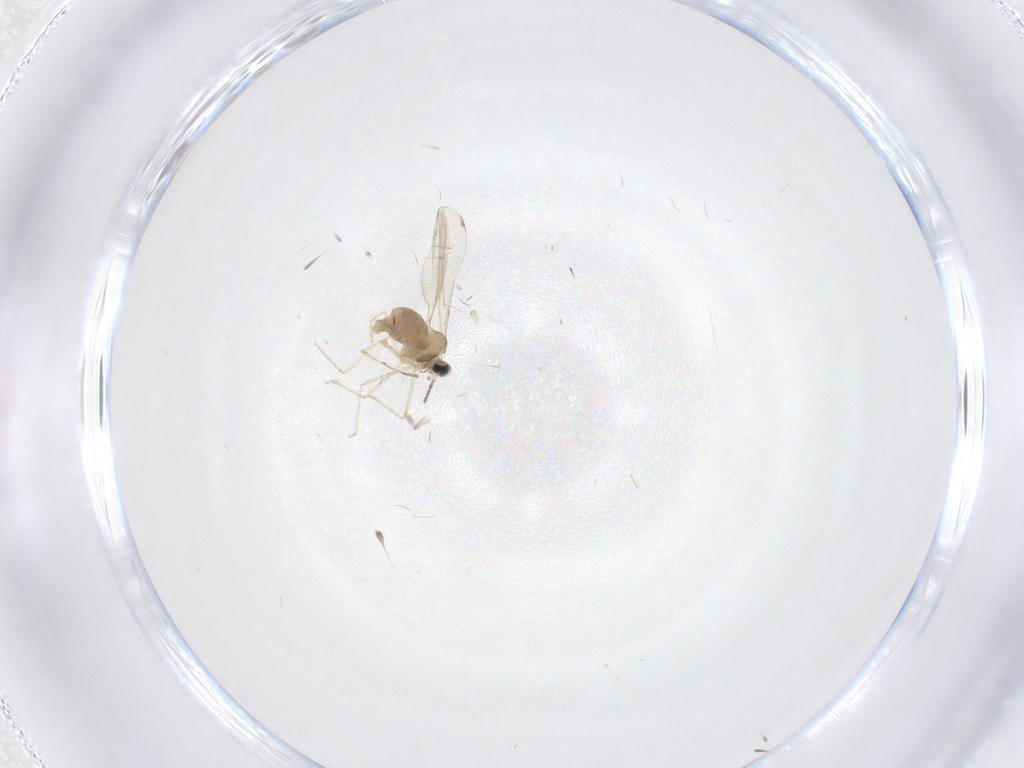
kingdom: Animalia
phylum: Arthropoda
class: Insecta
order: Diptera
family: Cecidomyiidae
